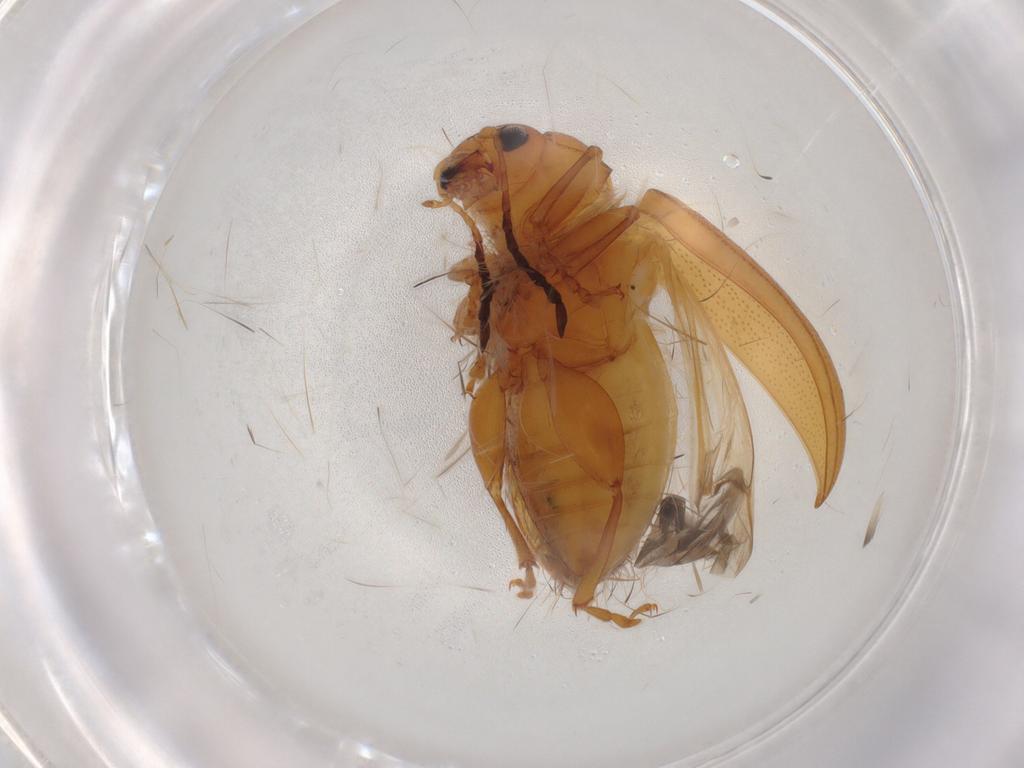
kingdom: Animalia
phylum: Arthropoda
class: Insecta
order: Coleoptera
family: Chrysomelidae
